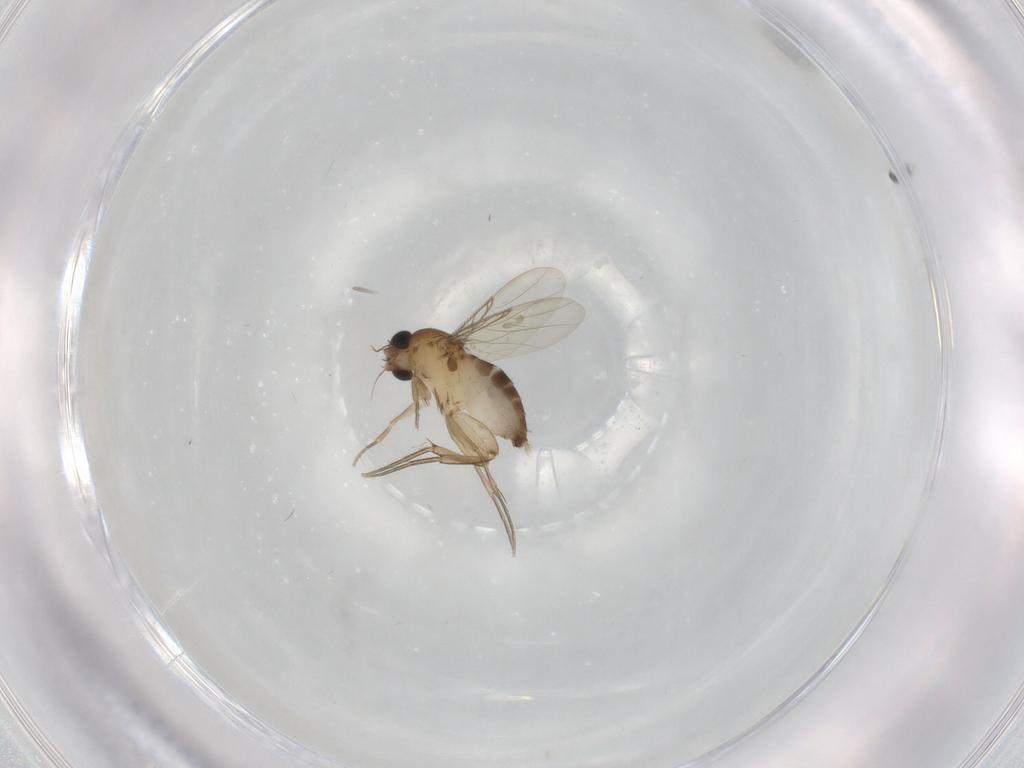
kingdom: Animalia
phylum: Arthropoda
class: Insecta
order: Diptera
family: Phoridae
